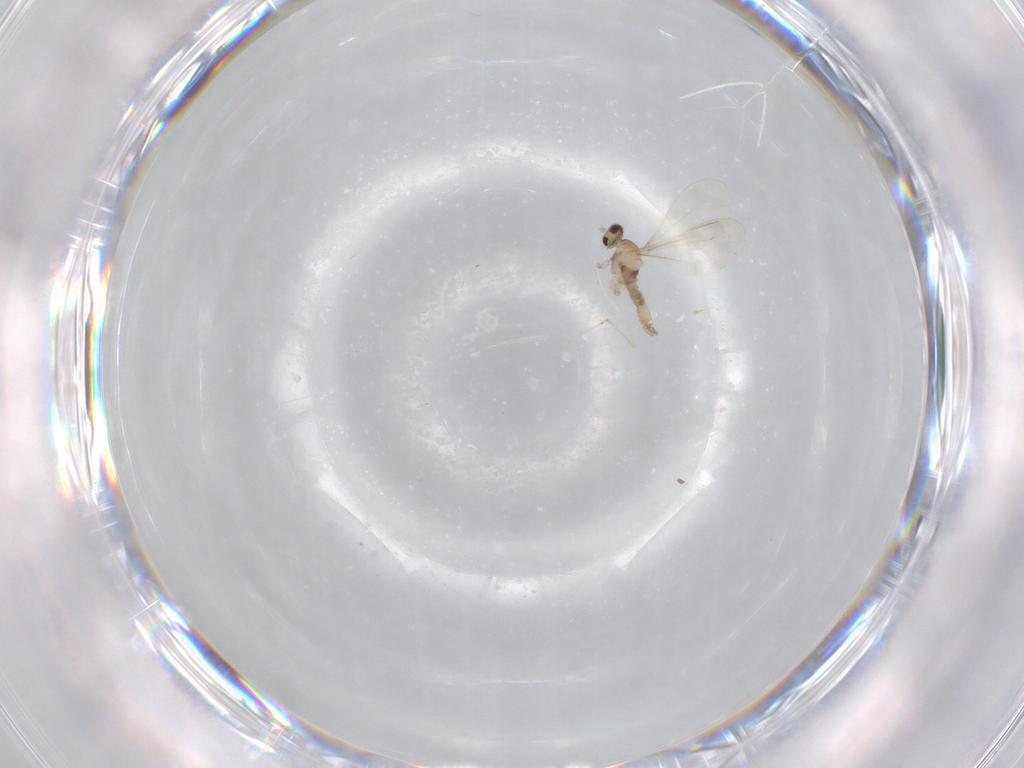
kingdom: Animalia
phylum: Arthropoda
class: Insecta
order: Diptera
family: Cecidomyiidae
